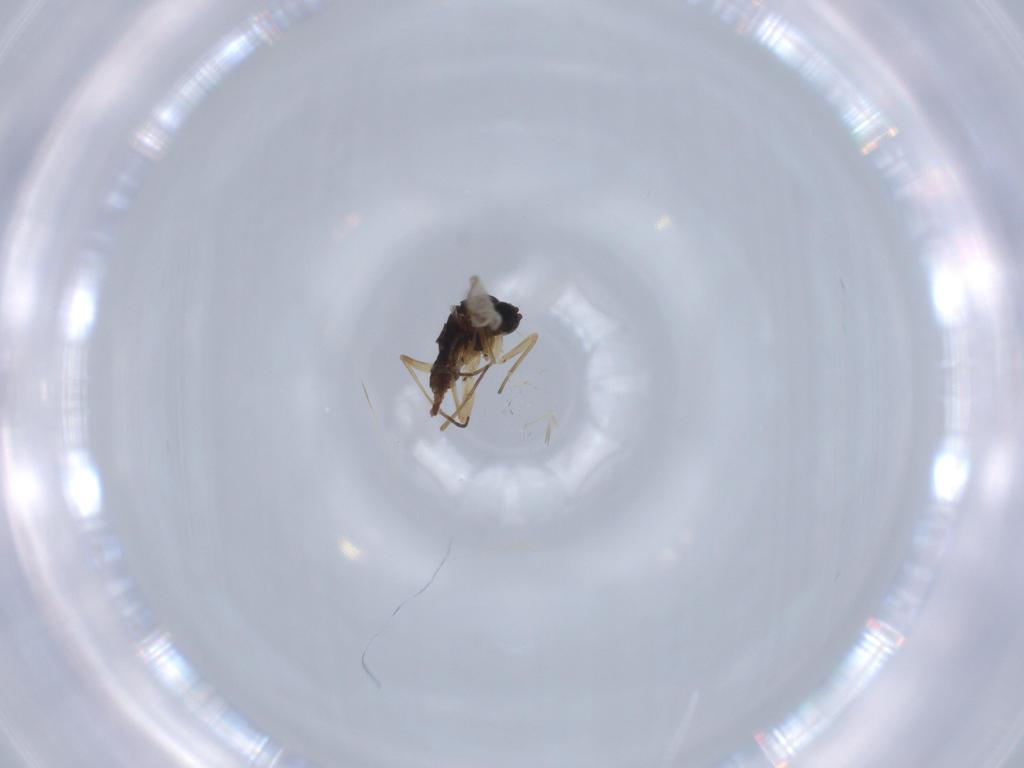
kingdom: Animalia
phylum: Arthropoda
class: Insecta
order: Diptera
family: Sciaridae
